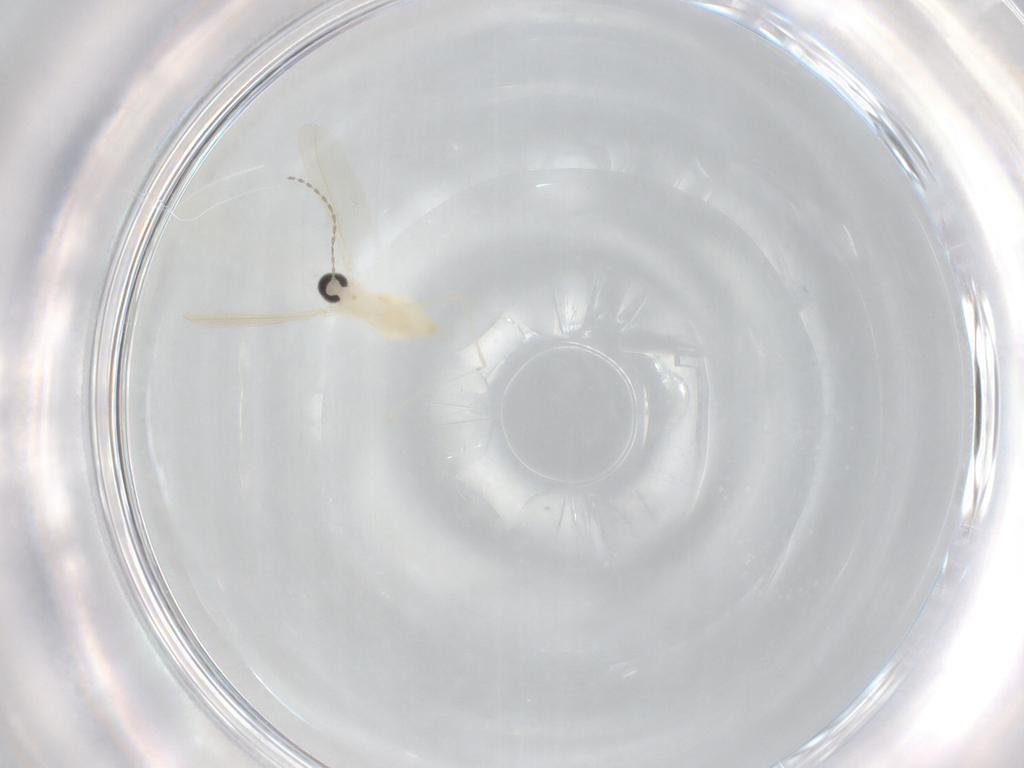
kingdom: Animalia
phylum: Arthropoda
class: Insecta
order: Diptera
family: Cecidomyiidae
